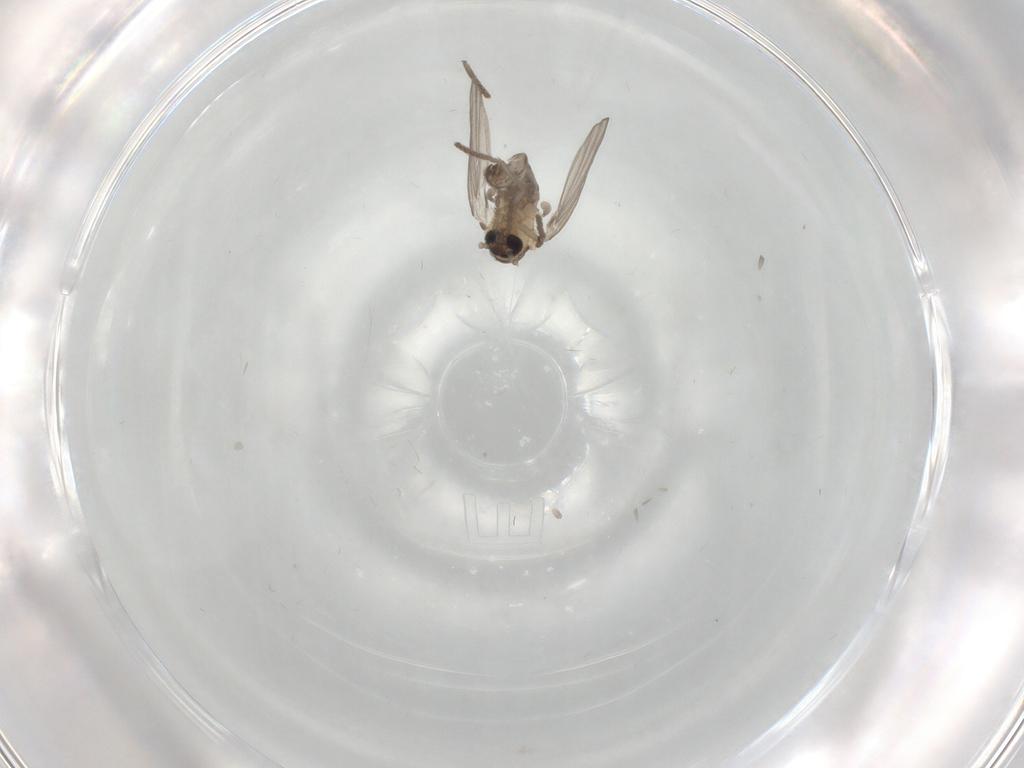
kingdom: Animalia
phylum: Arthropoda
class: Insecta
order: Diptera
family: Drosophilidae
